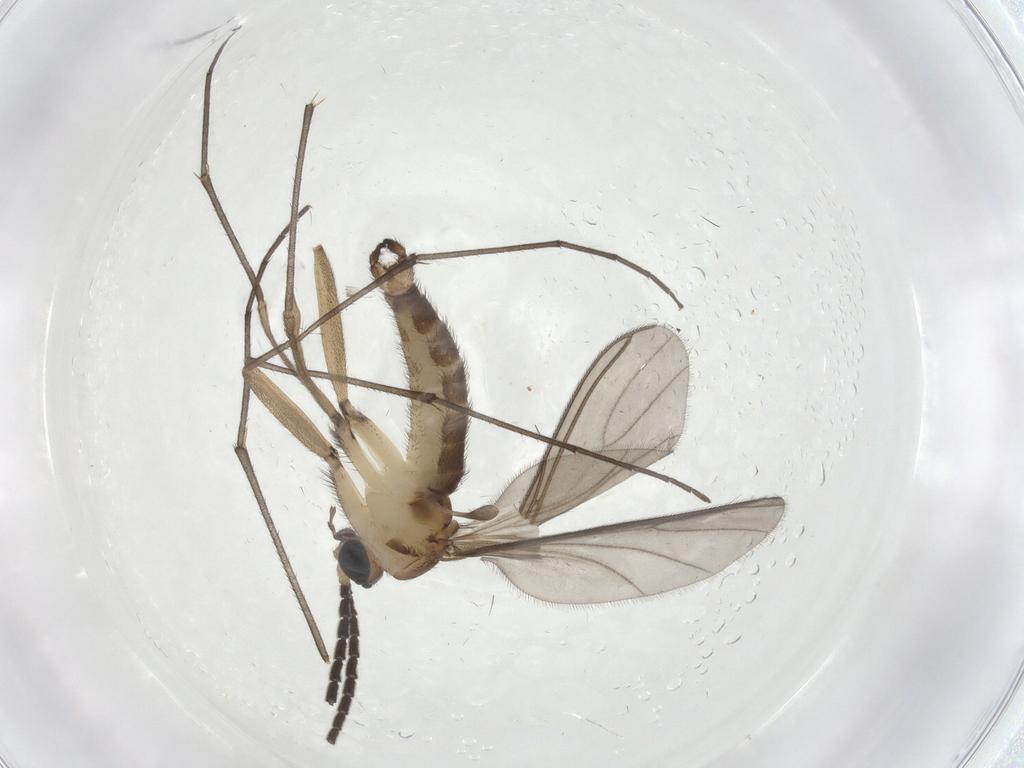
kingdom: Animalia
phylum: Arthropoda
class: Insecta
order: Diptera
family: Sciaridae
